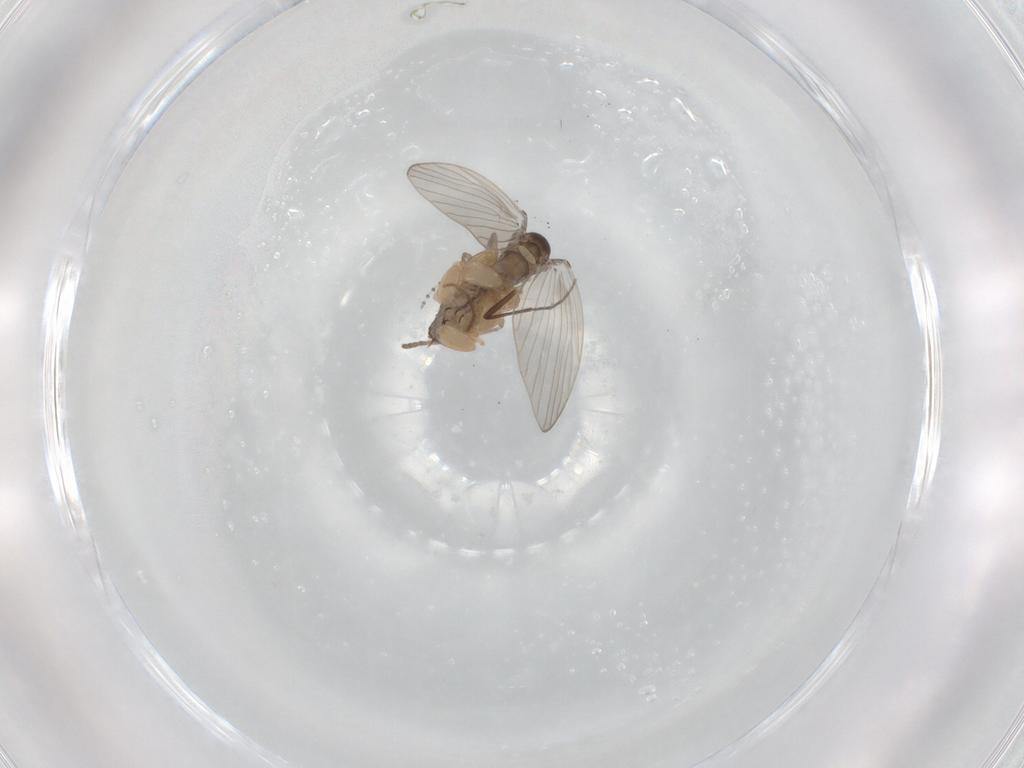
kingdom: Animalia
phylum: Arthropoda
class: Insecta
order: Diptera
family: Psychodidae
